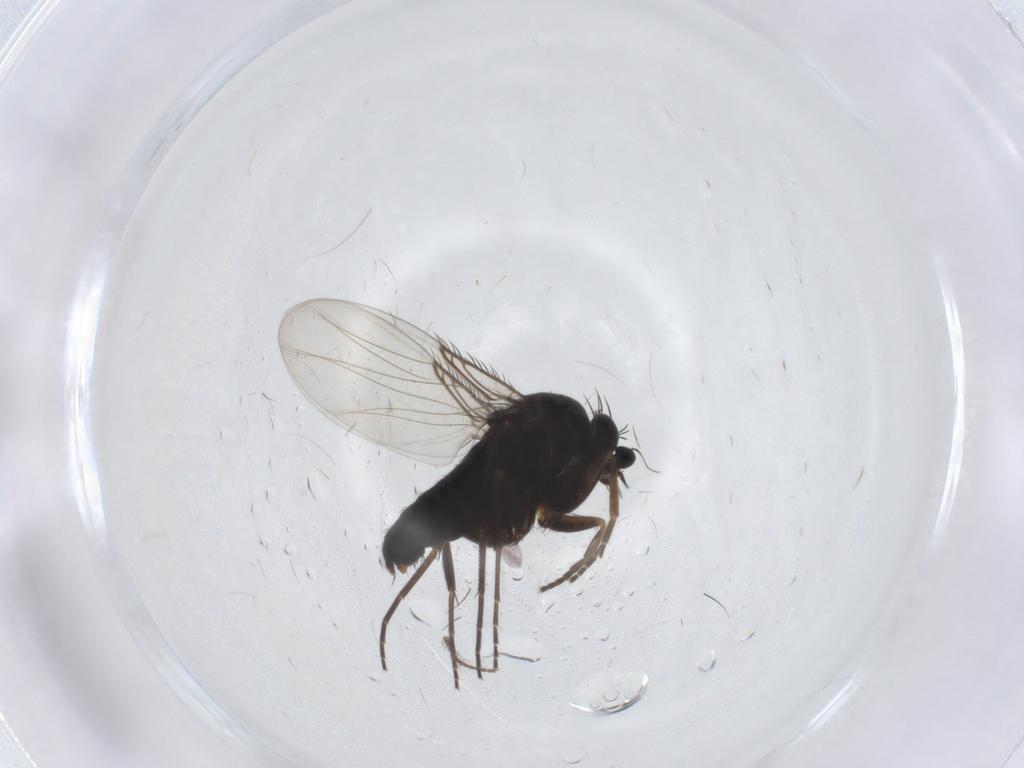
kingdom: Animalia
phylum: Arthropoda
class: Insecta
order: Diptera
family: Phoridae
